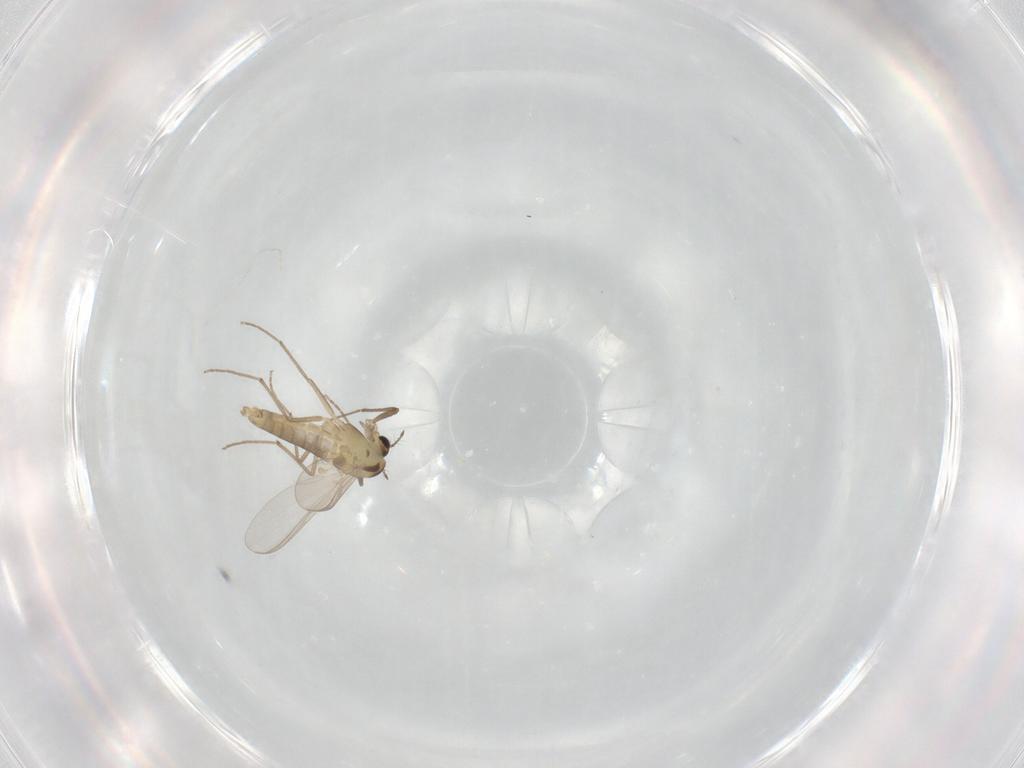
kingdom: Animalia
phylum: Arthropoda
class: Insecta
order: Diptera
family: Chironomidae
